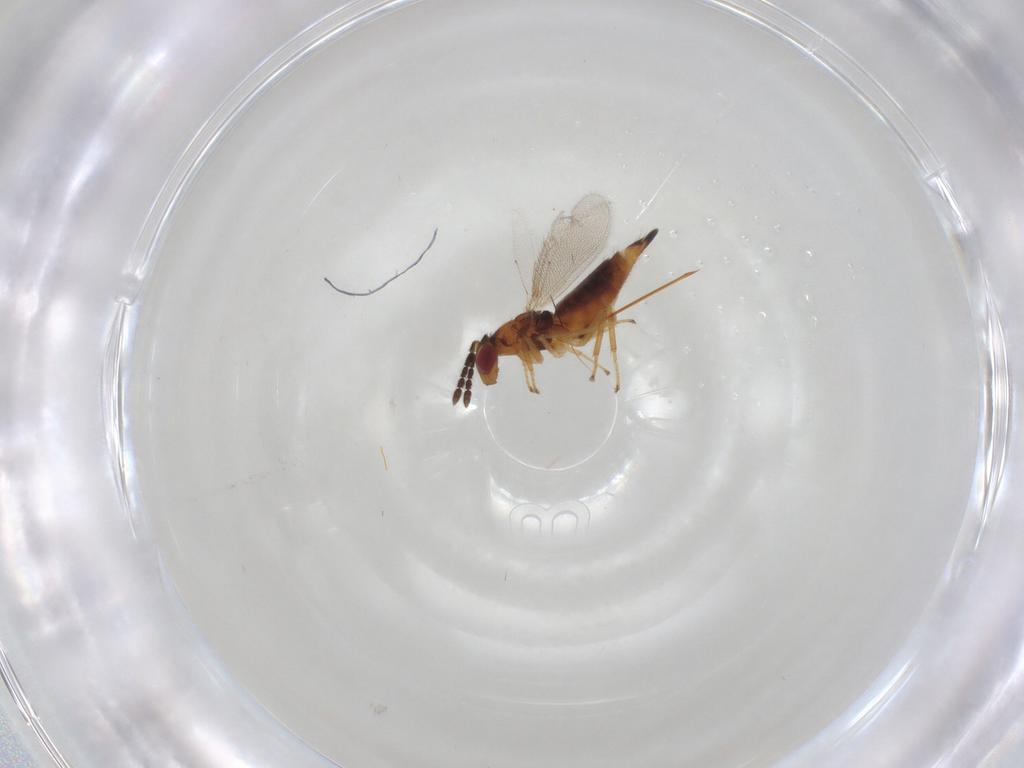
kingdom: Animalia
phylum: Arthropoda
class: Insecta
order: Hymenoptera
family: Eulophidae
